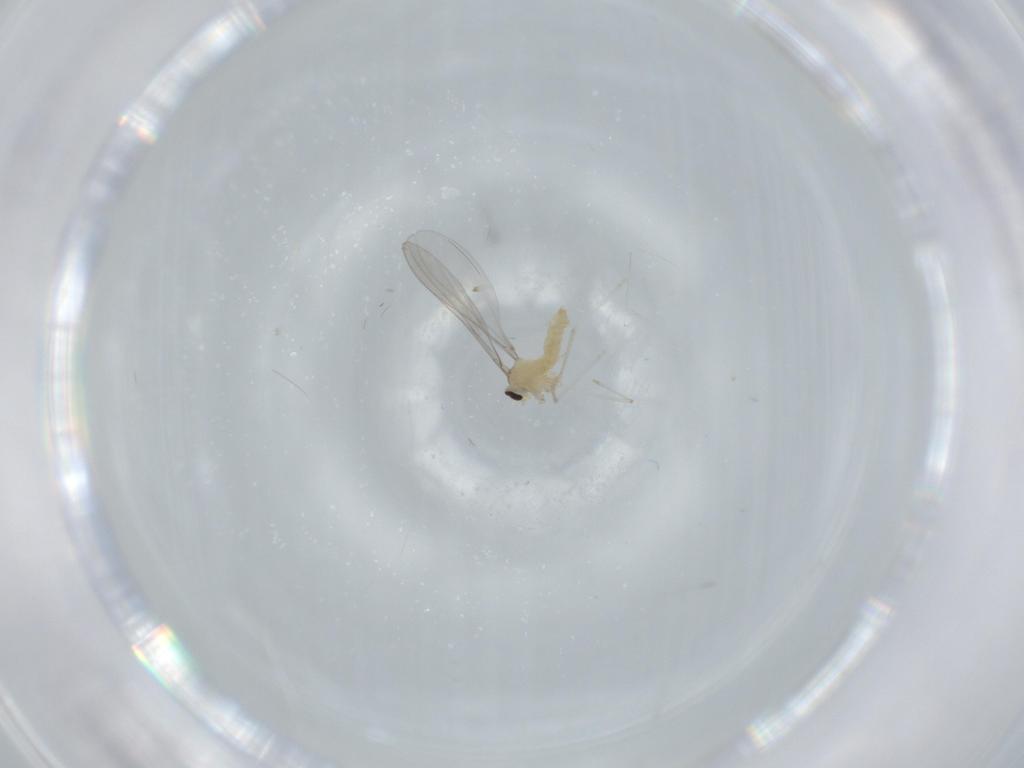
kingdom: Animalia
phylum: Arthropoda
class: Insecta
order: Diptera
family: Cecidomyiidae
